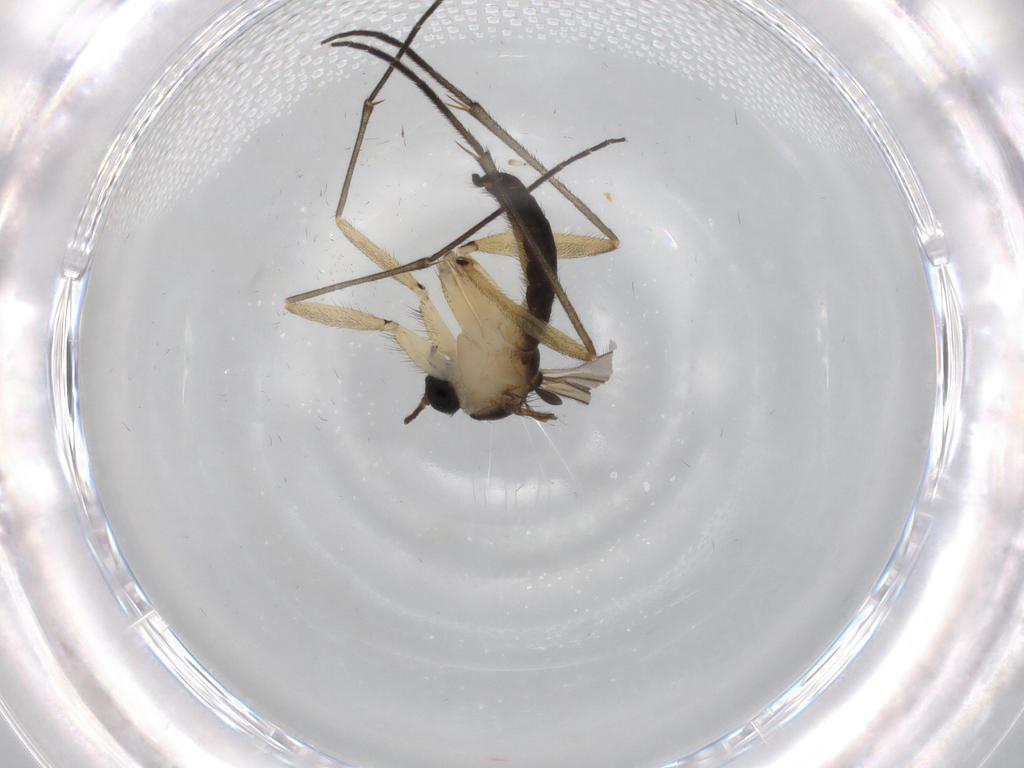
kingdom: Animalia
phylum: Arthropoda
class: Insecta
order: Diptera
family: Sciaridae
